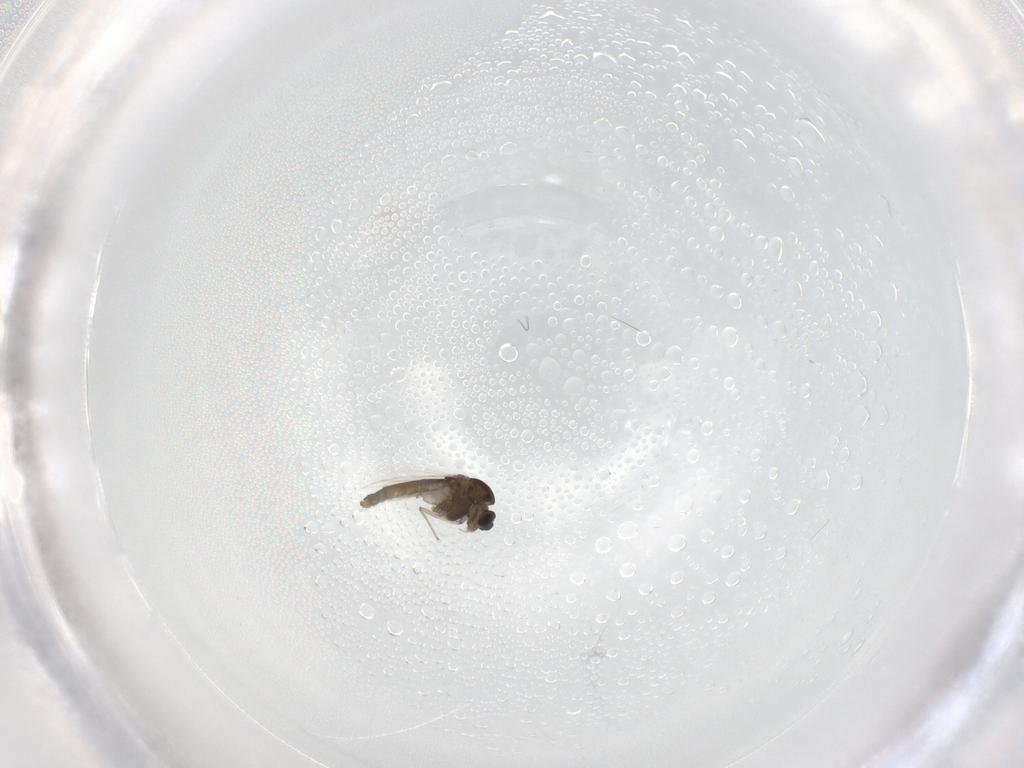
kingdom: Animalia
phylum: Arthropoda
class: Insecta
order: Diptera
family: Chironomidae
